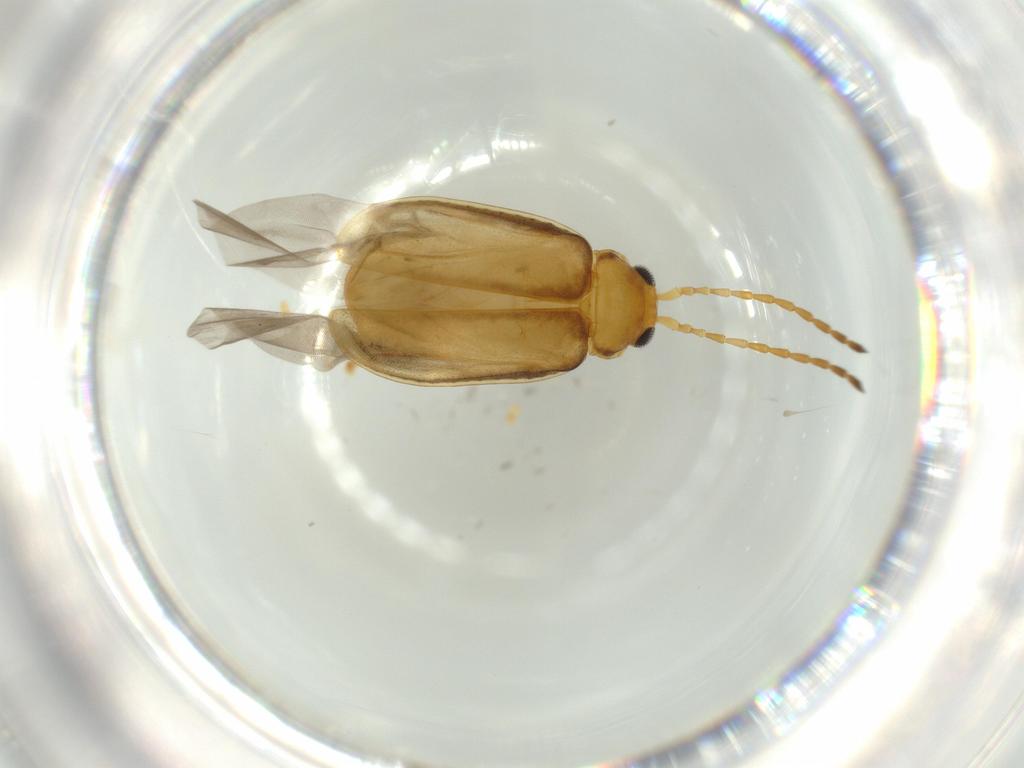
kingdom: Animalia
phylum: Arthropoda
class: Insecta
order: Coleoptera
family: Chrysomelidae
